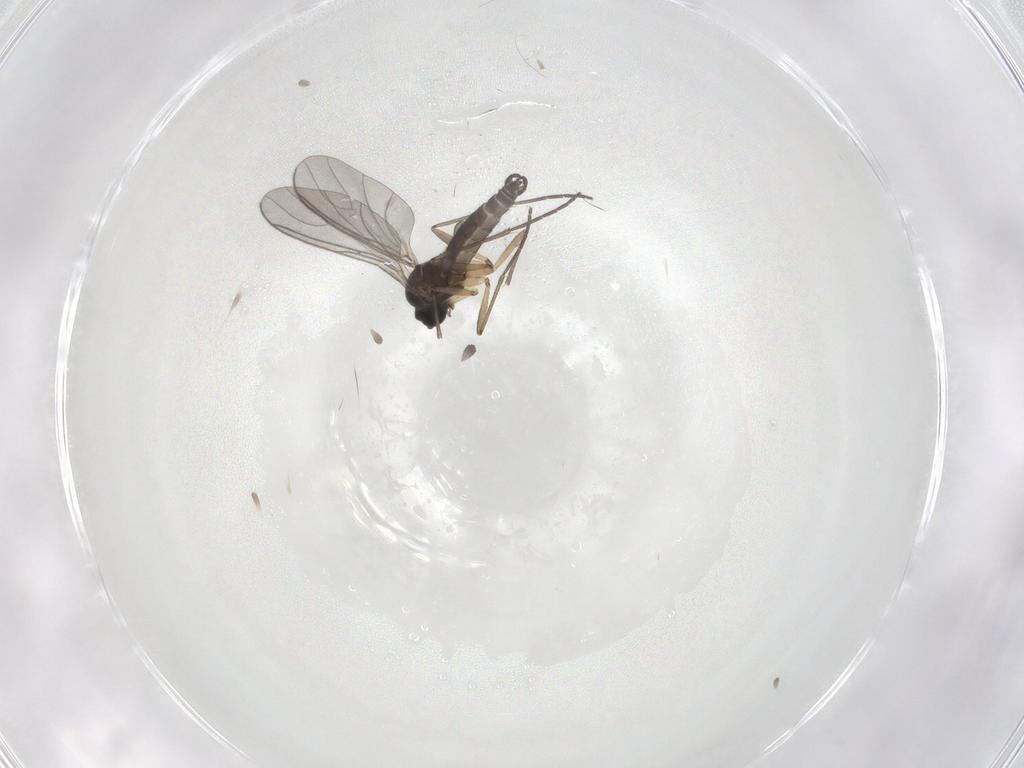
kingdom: Animalia
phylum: Arthropoda
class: Insecta
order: Diptera
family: Sciaridae
